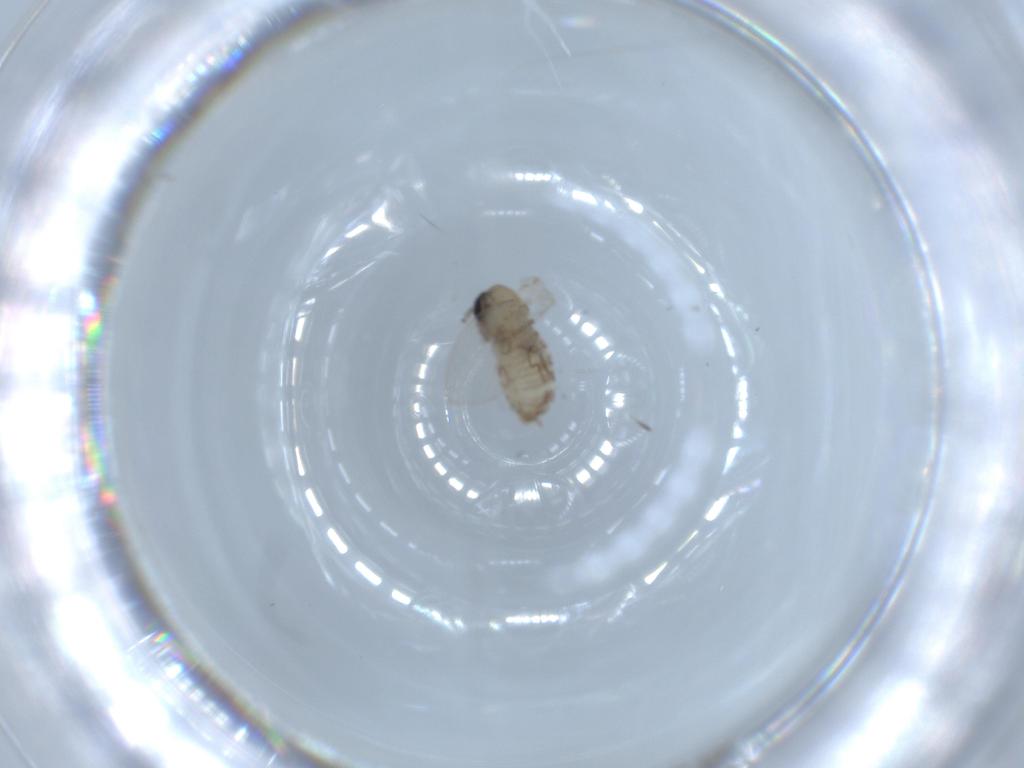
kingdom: Animalia
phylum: Arthropoda
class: Insecta
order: Diptera
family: Psychodidae
